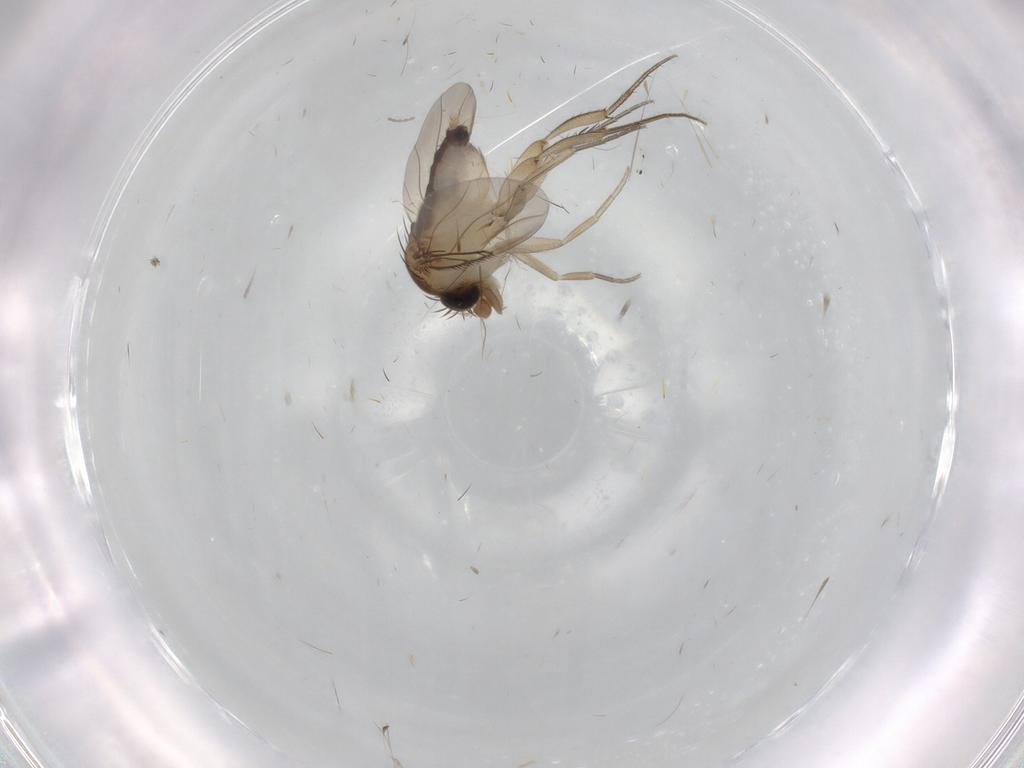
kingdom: Animalia
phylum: Arthropoda
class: Insecta
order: Diptera
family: Phoridae
